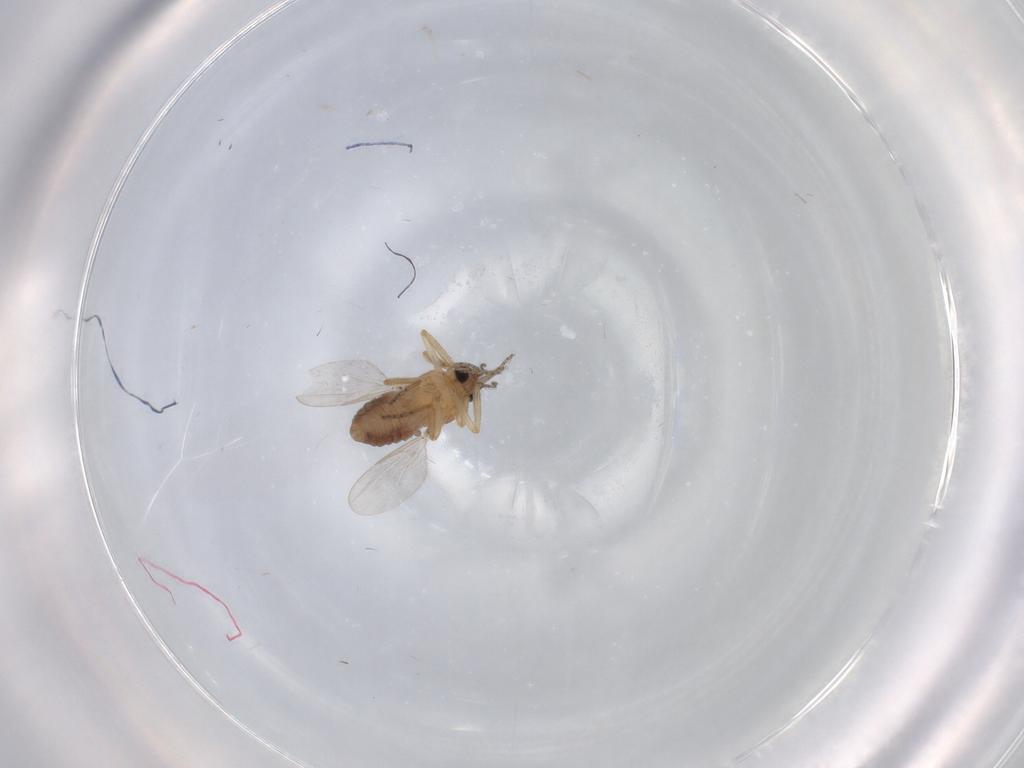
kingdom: Animalia
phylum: Arthropoda
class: Insecta
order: Diptera
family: Ceratopogonidae
